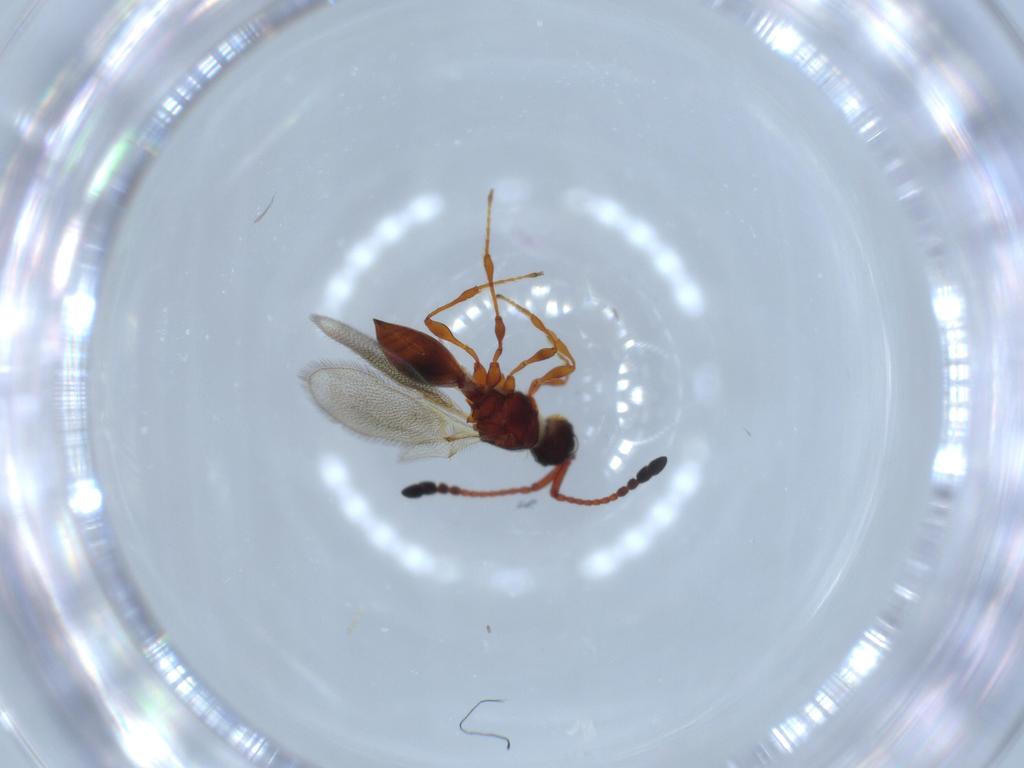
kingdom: Animalia
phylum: Arthropoda
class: Insecta
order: Hymenoptera
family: Diapriidae
